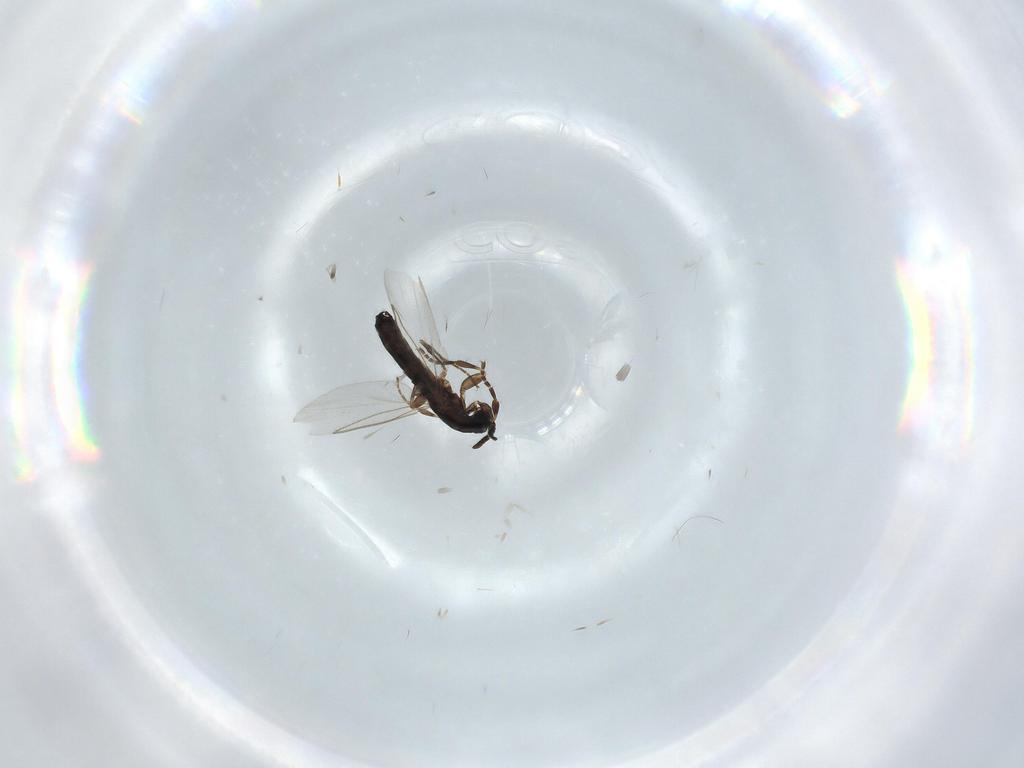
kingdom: Animalia
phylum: Arthropoda
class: Insecta
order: Diptera
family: Scatopsidae
